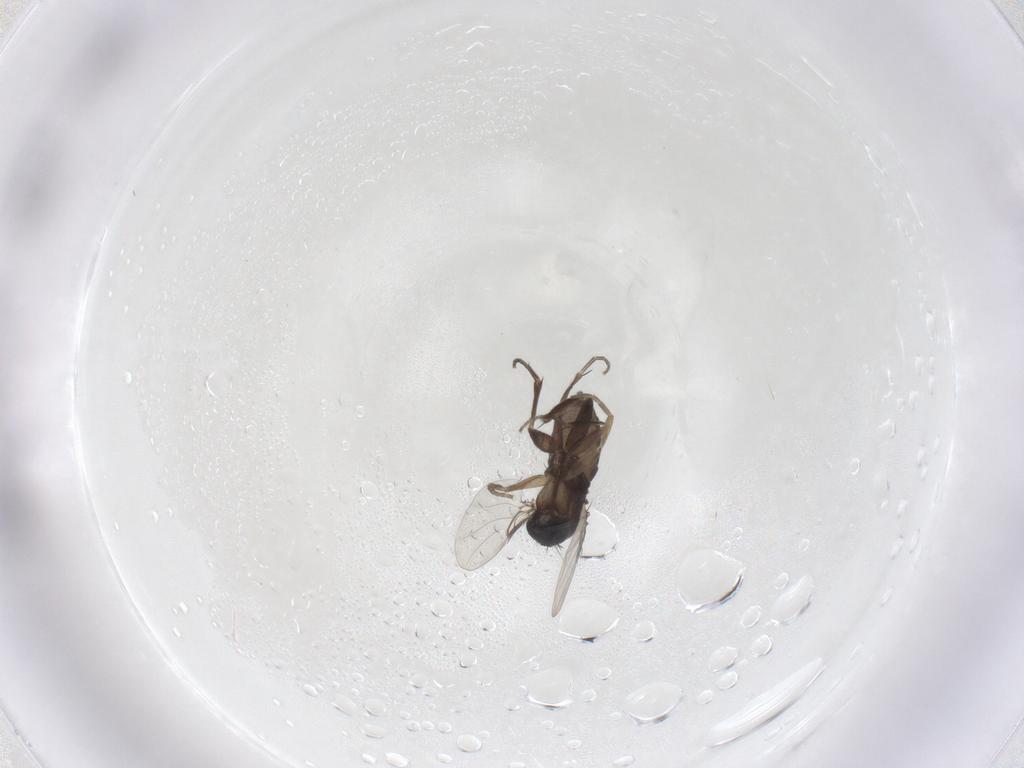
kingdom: Animalia
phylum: Arthropoda
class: Insecta
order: Diptera
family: Phoridae
